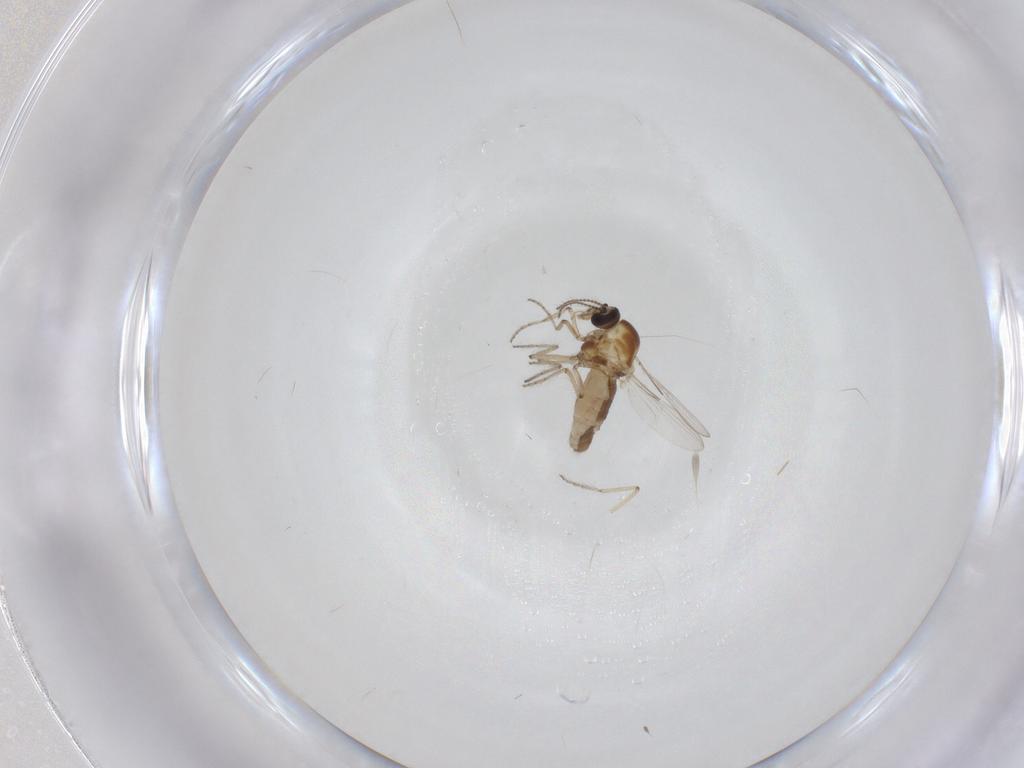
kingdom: Animalia
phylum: Arthropoda
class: Insecta
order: Diptera
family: Ceratopogonidae
